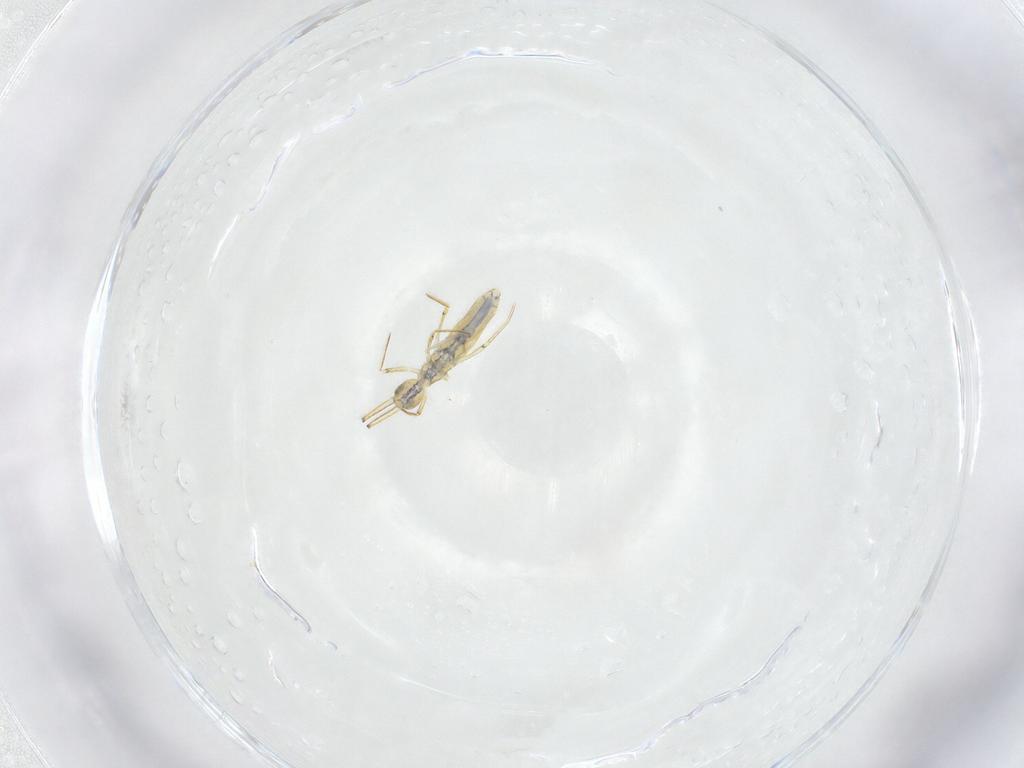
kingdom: Animalia
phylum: Arthropoda
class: Collembola
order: Entomobryomorpha
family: Entomobryidae
